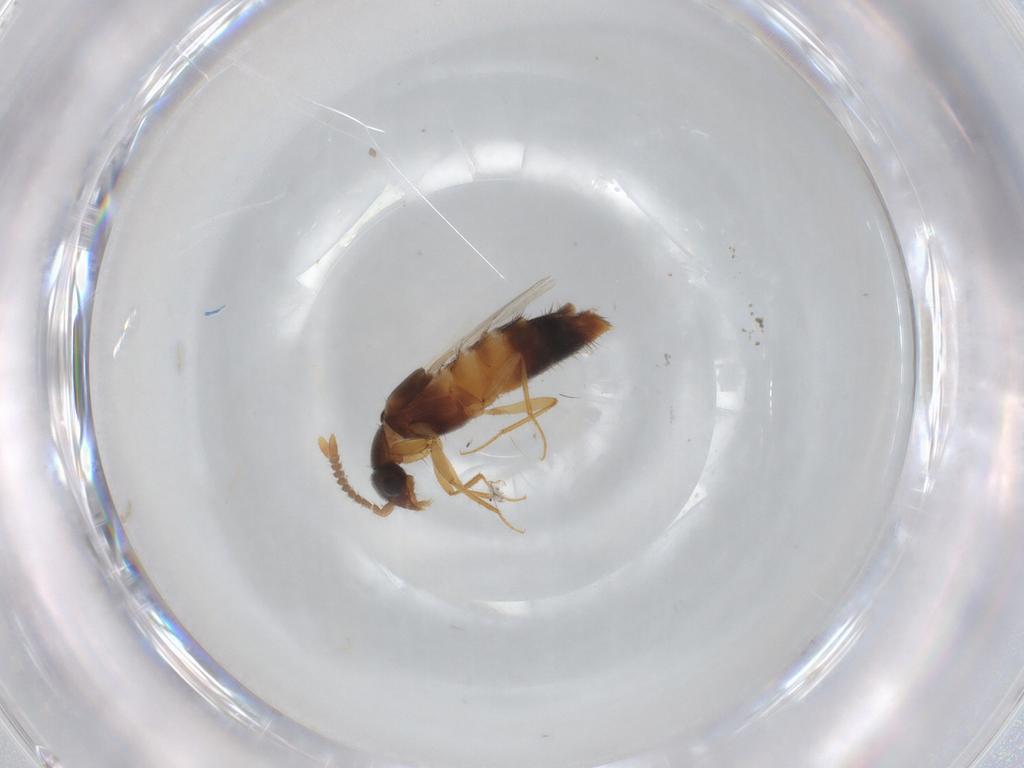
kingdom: Animalia
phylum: Arthropoda
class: Insecta
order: Coleoptera
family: Staphylinidae
